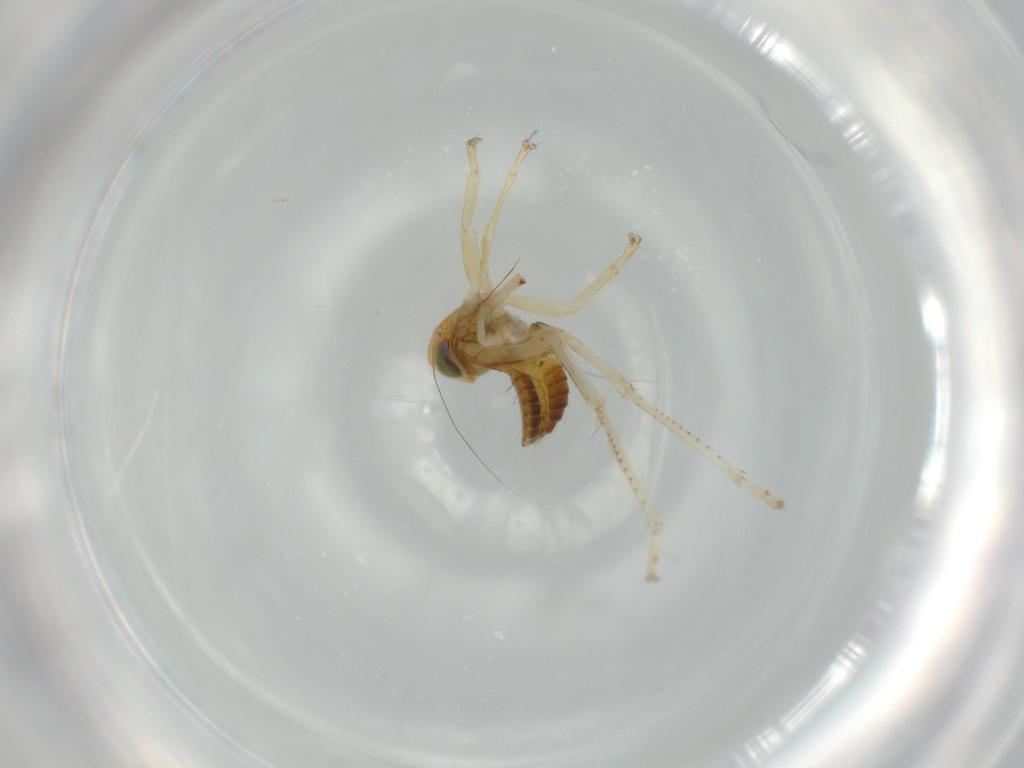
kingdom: Animalia
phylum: Arthropoda
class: Insecta
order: Hemiptera
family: Cicadellidae
